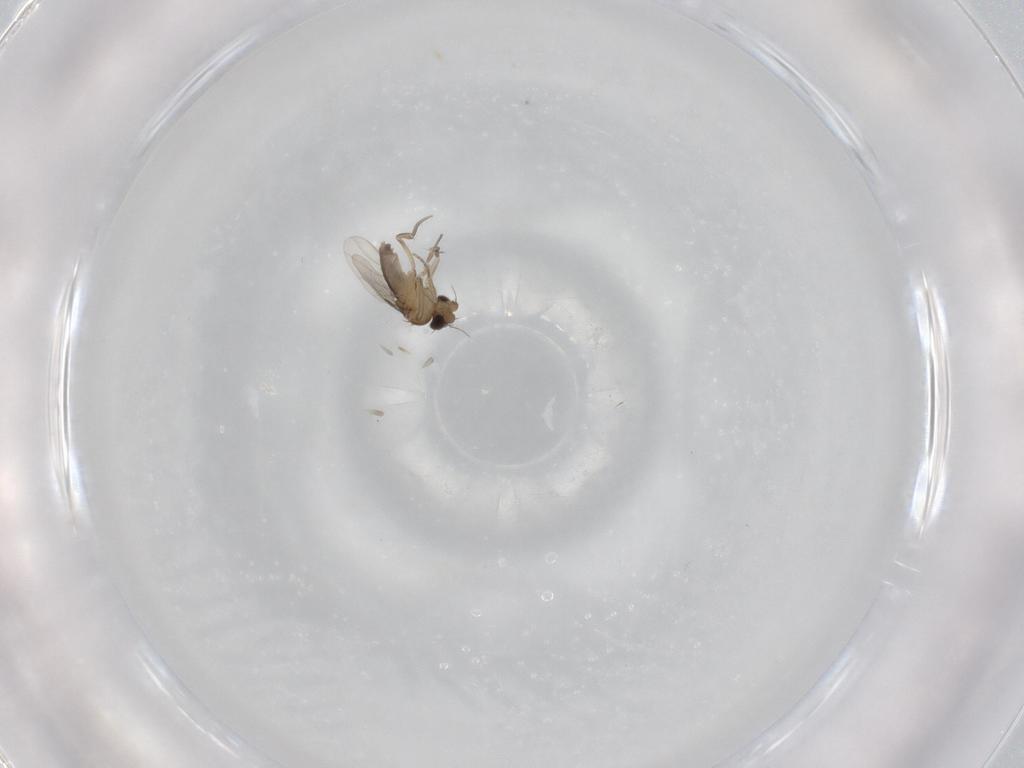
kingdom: Animalia
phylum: Arthropoda
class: Insecta
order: Diptera
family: Phoridae
